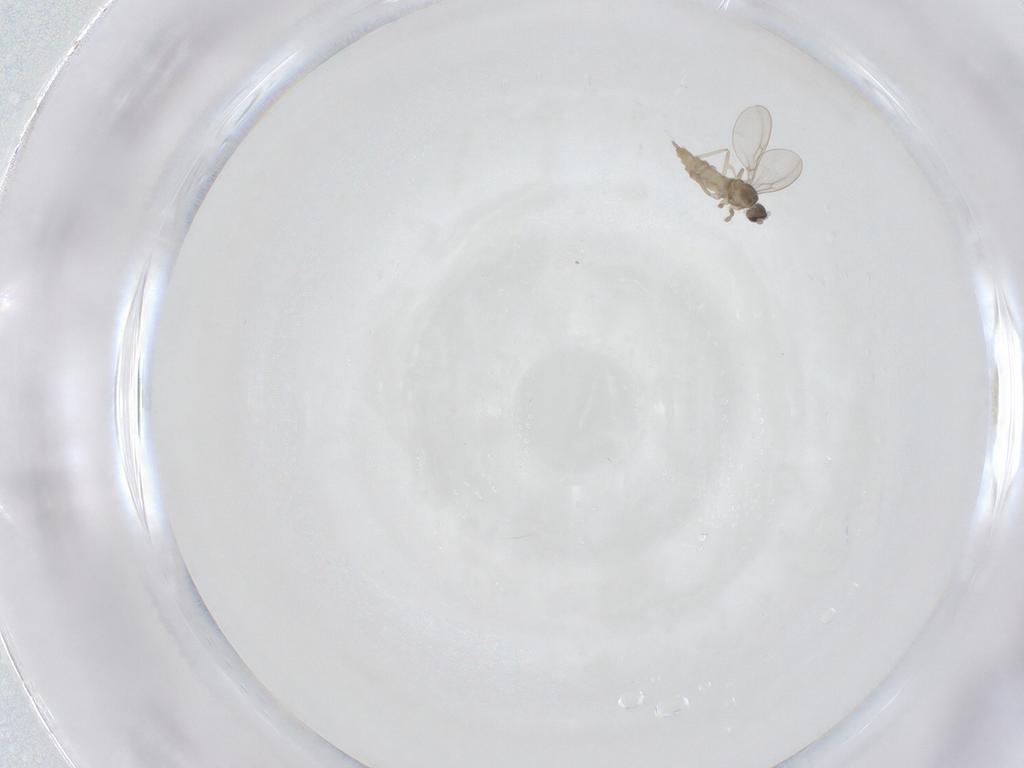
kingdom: Animalia
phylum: Arthropoda
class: Insecta
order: Diptera
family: Cecidomyiidae
